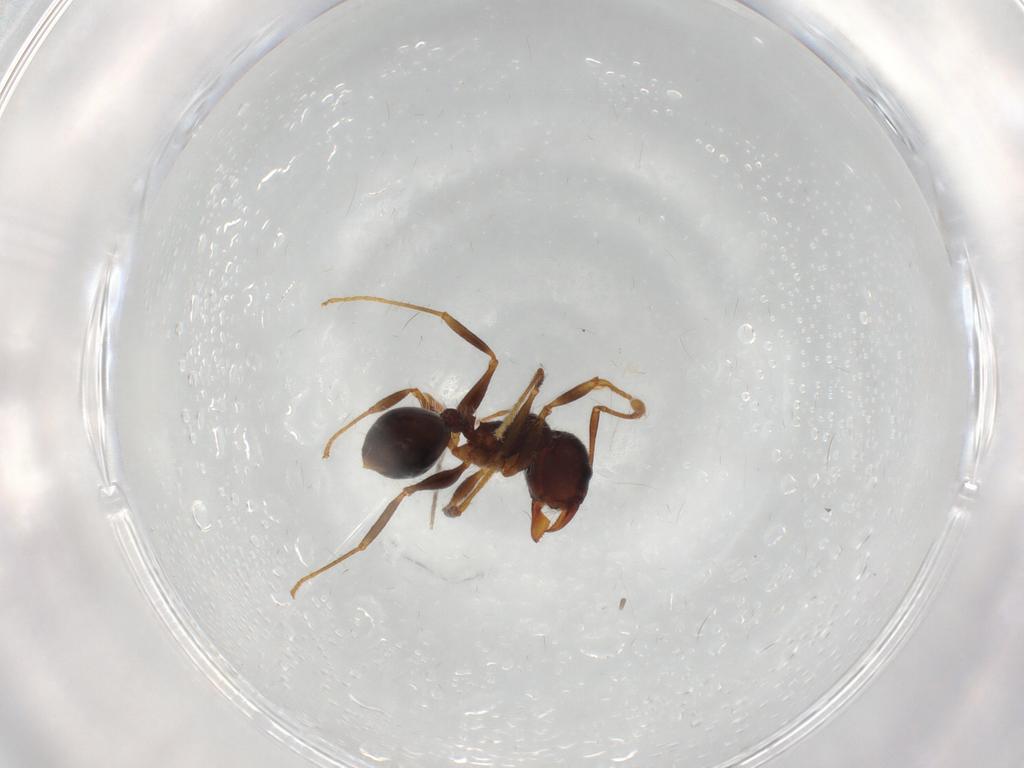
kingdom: Animalia
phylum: Arthropoda
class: Insecta
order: Hymenoptera
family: Formicidae
